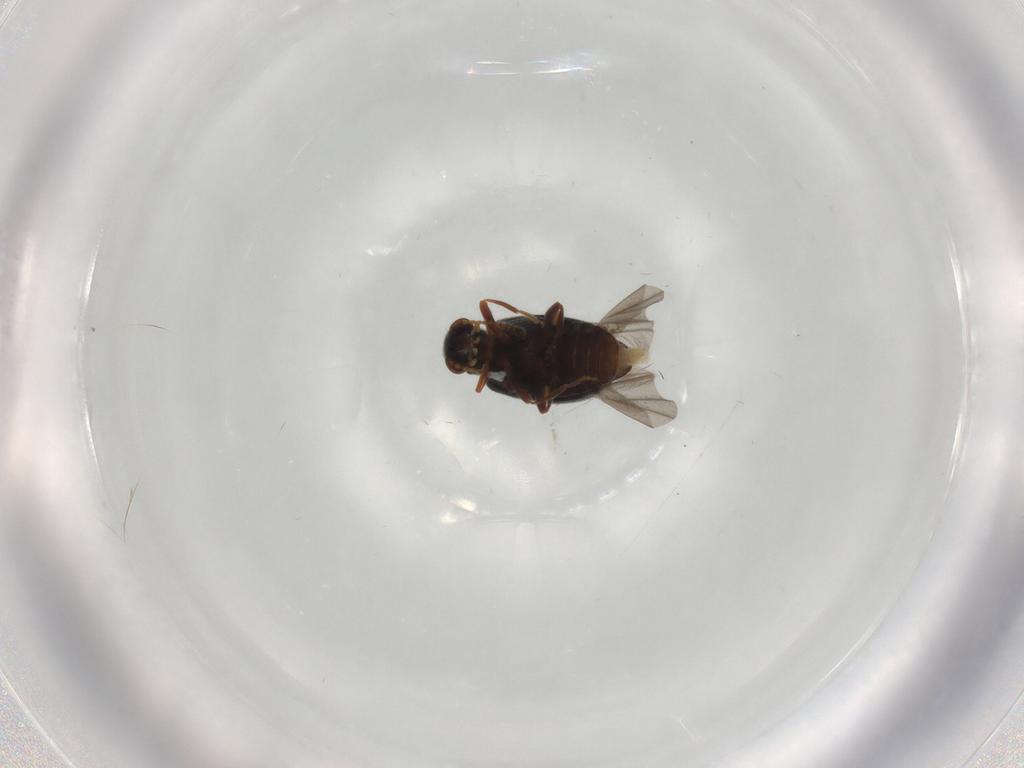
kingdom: Animalia
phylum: Arthropoda
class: Insecta
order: Coleoptera
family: Aderidae
